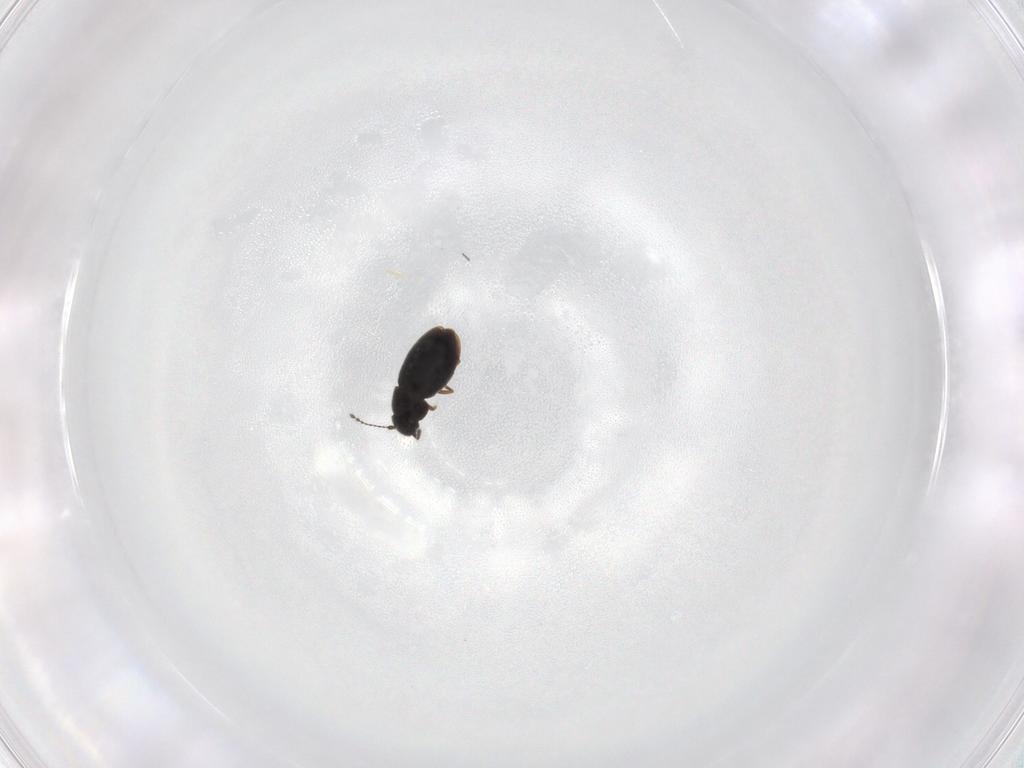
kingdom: Animalia
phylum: Arthropoda
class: Insecta
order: Coleoptera
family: Ptiliidae
